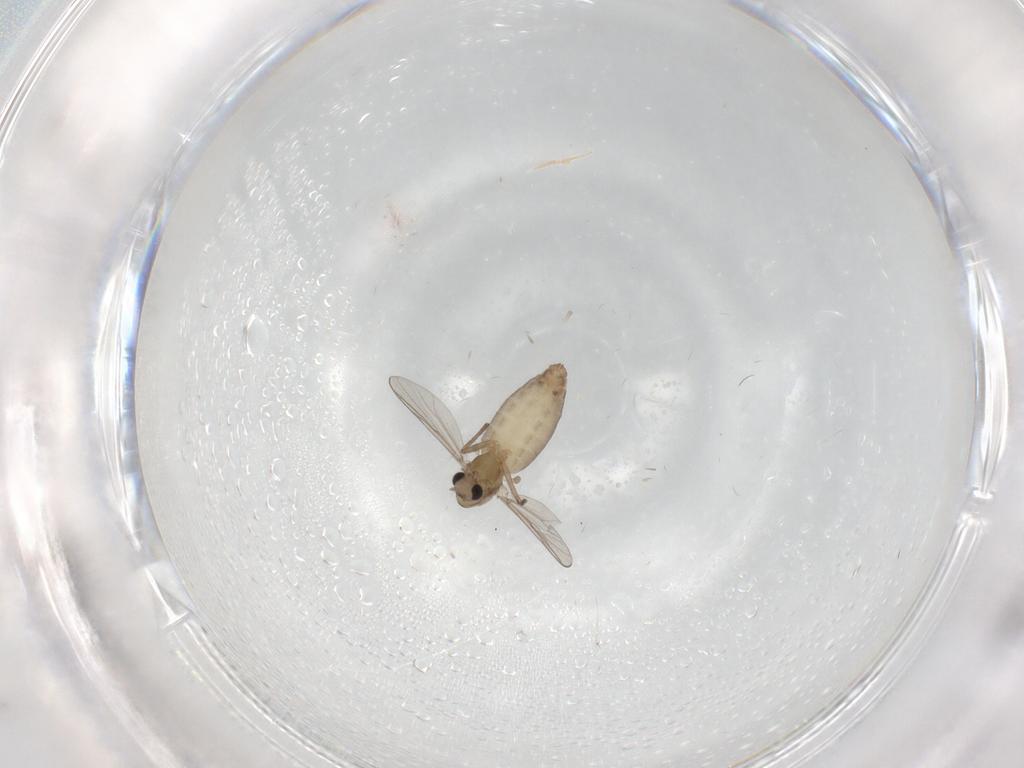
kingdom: Animalia
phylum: Arthropoda
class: Insecta
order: Diptera
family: Chironomidae
